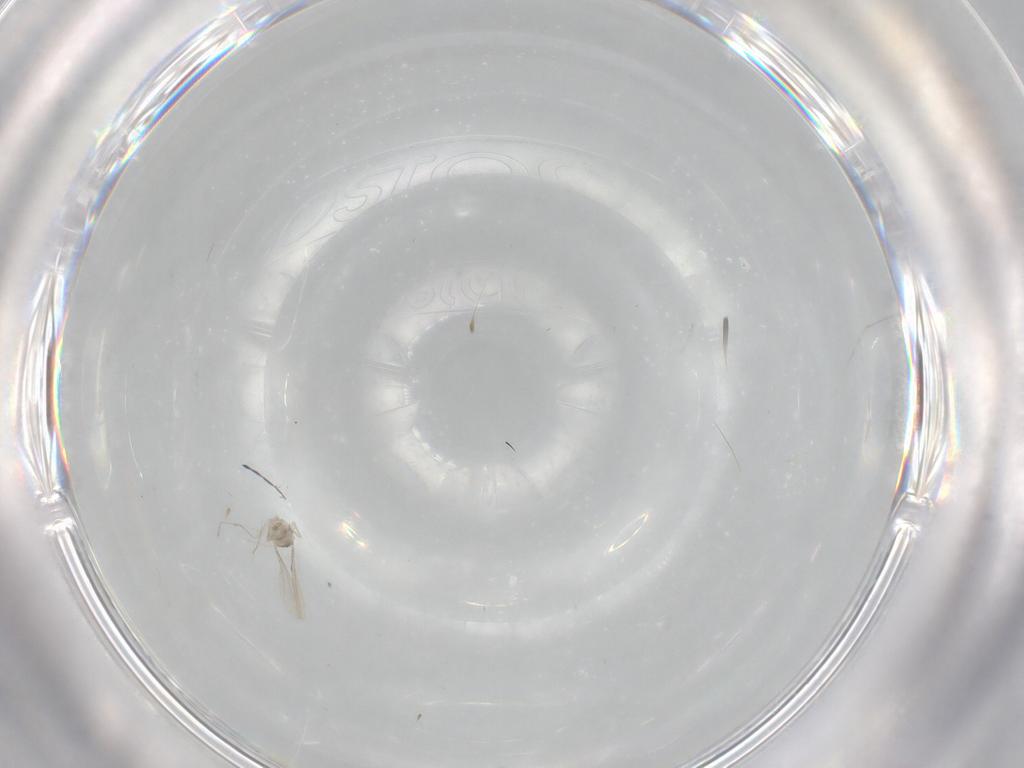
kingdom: Animalia
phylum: Arthropoda
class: Insecta
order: Diptera
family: Cecidomyiidae
